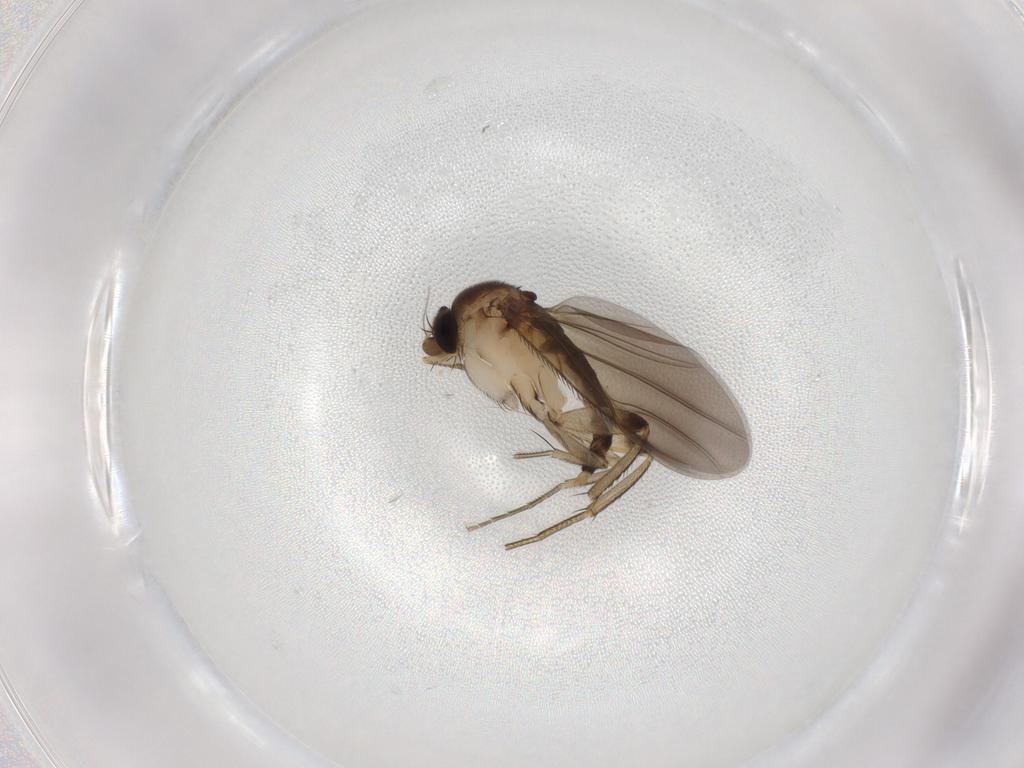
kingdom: Animalia
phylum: Arthropoda
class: Insecta
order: Diptera
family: Phoridae
